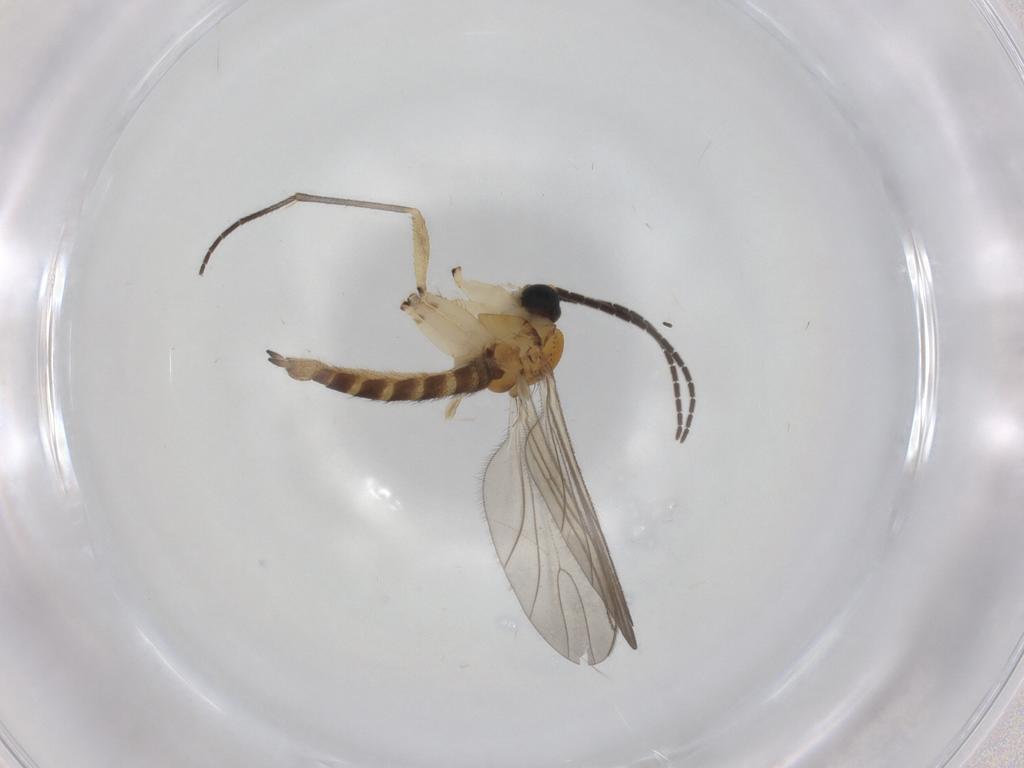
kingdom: Animalia
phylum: Arthropoda
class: Insecta
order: Diptera
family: Sciaridae
